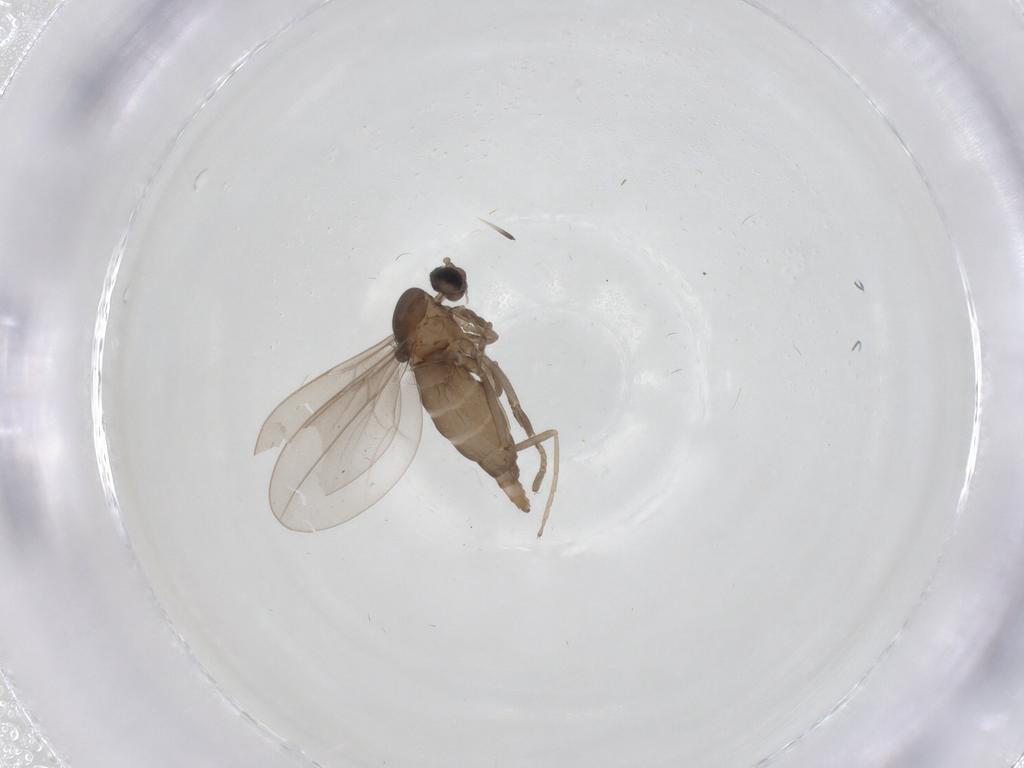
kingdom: Animalia
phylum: Arthropoda
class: Insecta
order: Diptera
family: Cecidomyiidae
